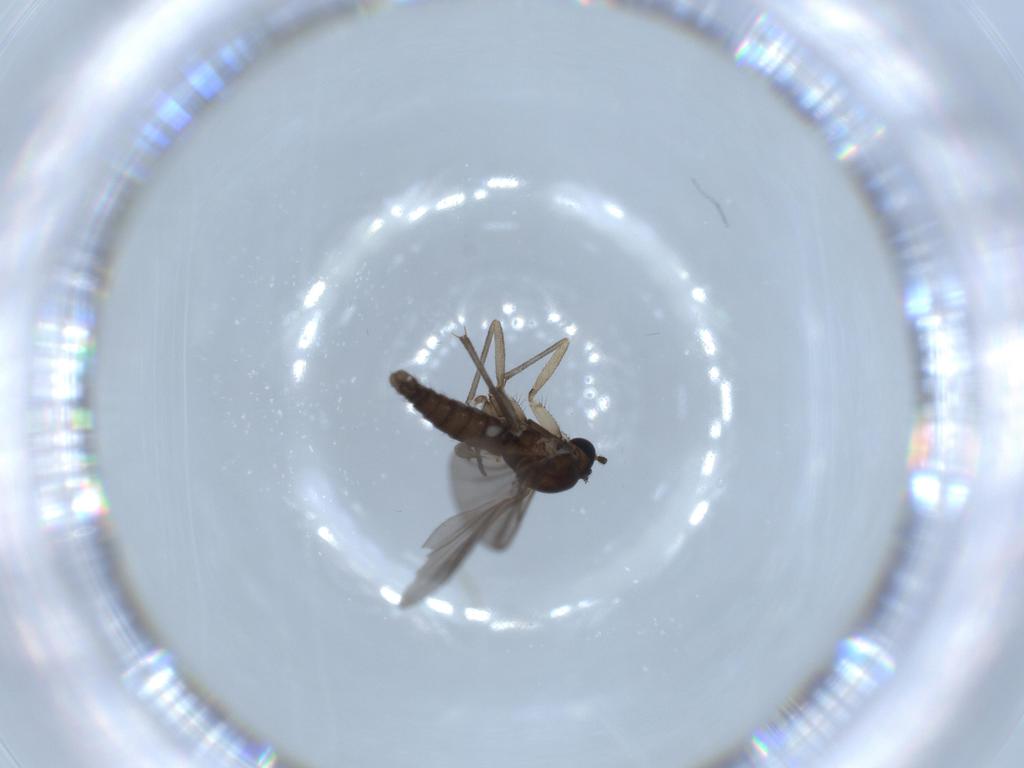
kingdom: Animalia
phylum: Arthropoda
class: Insecta
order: Diptera
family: Sciaridae
